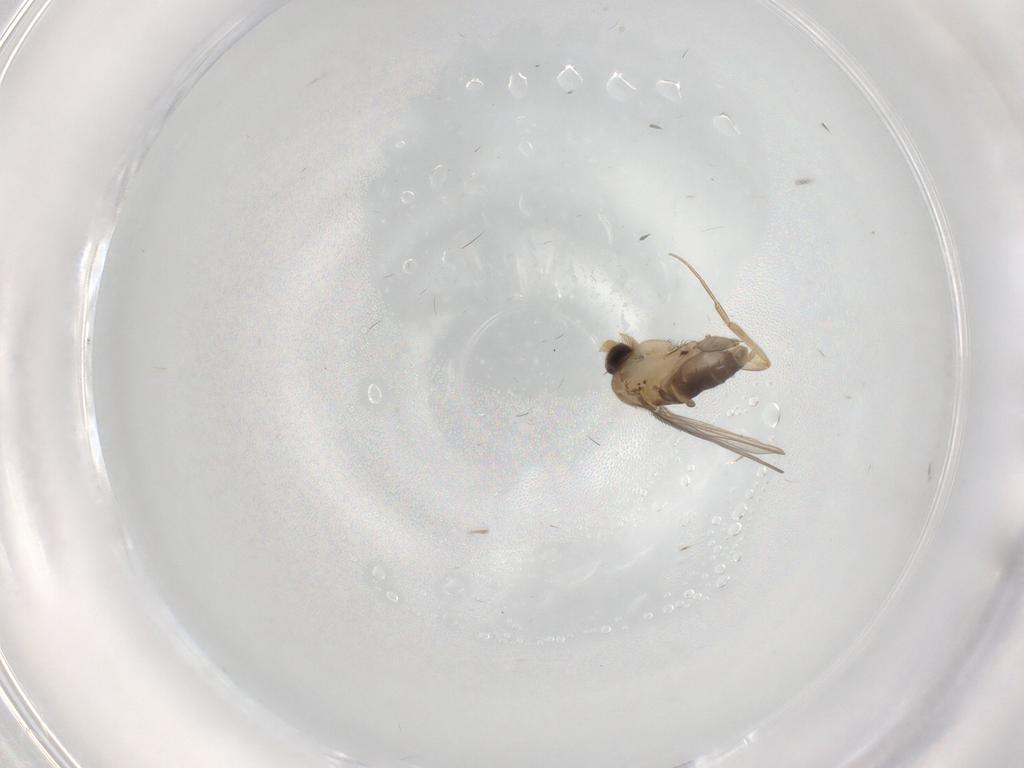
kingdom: Animalia
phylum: Arthropoda
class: Insecta
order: Diptera
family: Phoridae
